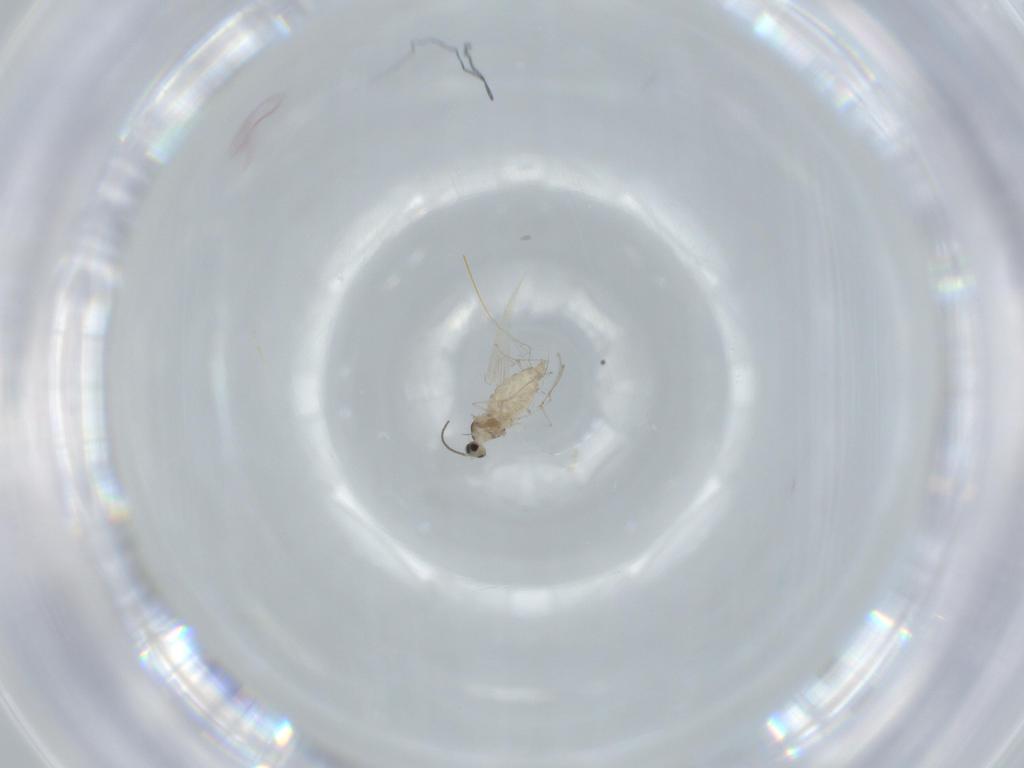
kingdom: Animalia
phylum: Arthropoda
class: Insecta
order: Diptera
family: Cecidomyiidae
